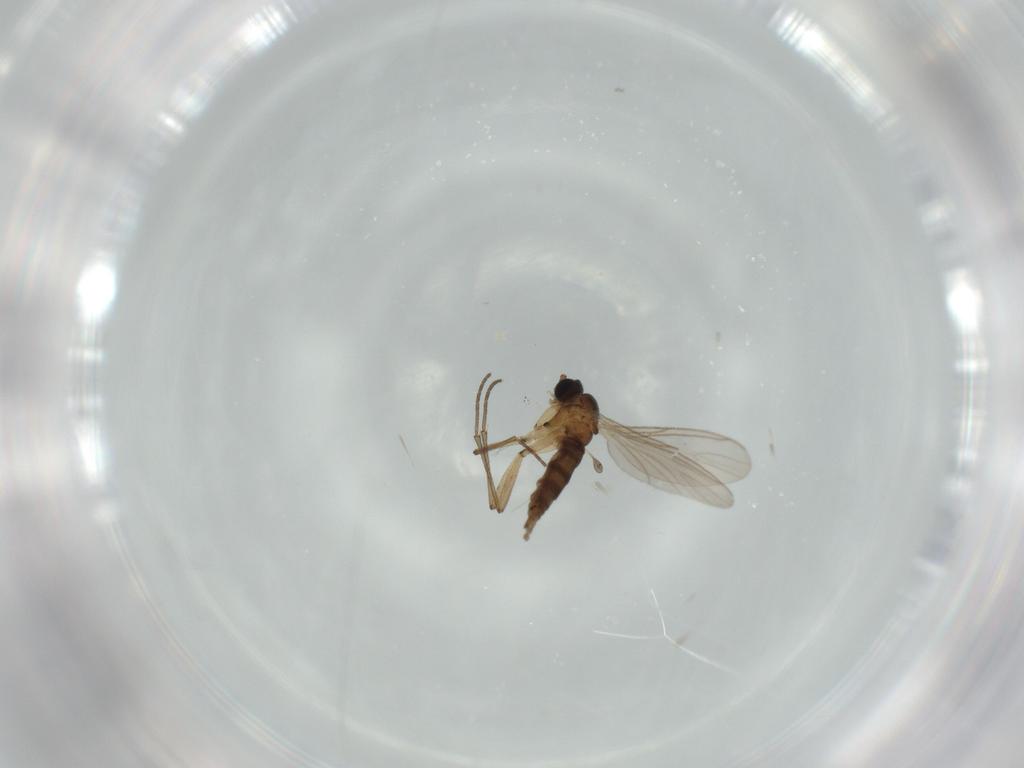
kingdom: Animalia
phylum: Arthropoda
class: Insecta
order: Diptera
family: Sciaridae
